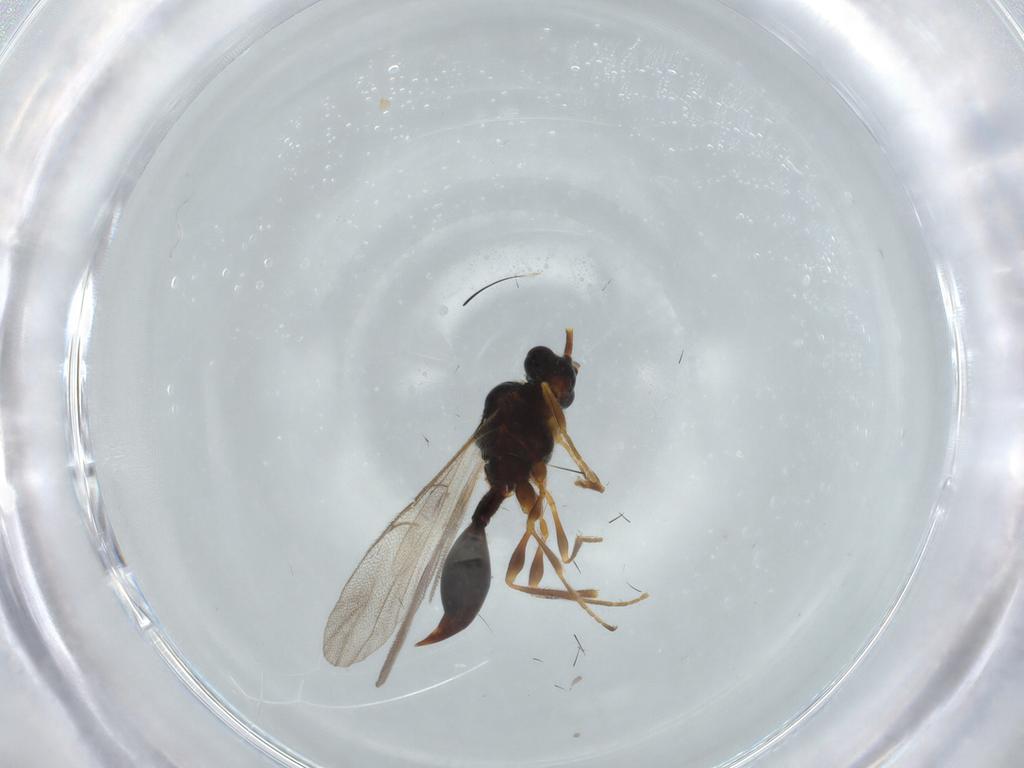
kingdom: Animalia
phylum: Arthropoda
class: Insecta
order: Hymenoptera
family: Diapriidae
